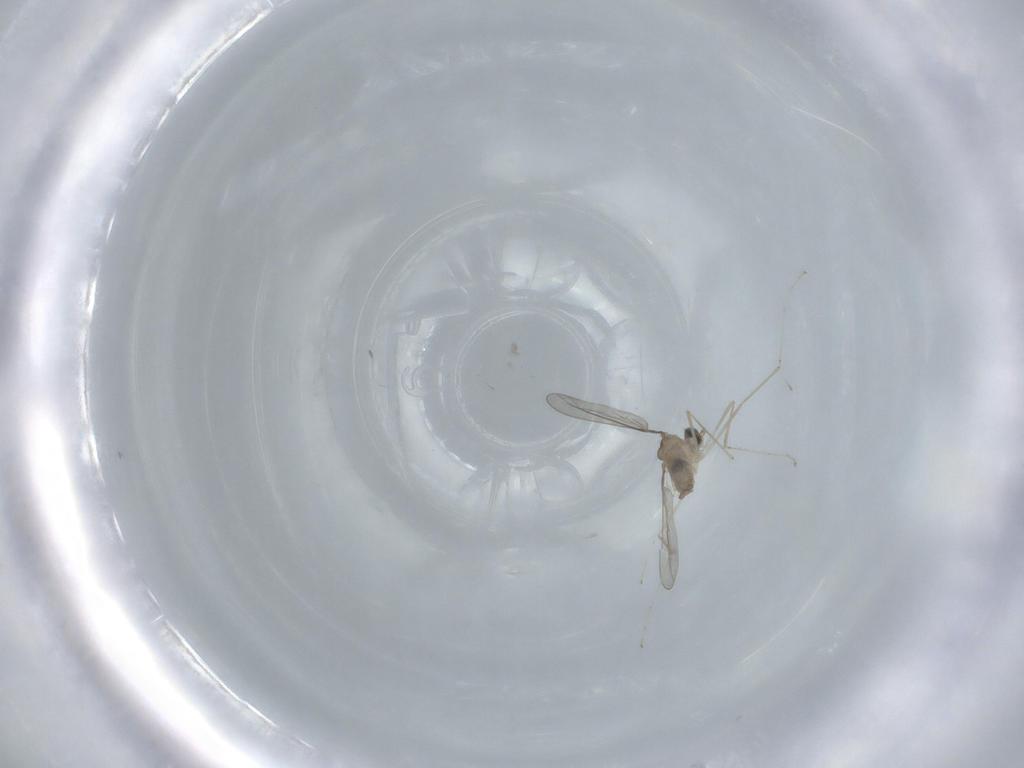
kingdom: Animalia
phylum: Arthropoda
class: Insecta
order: Diptera
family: Cecidomyiidae
